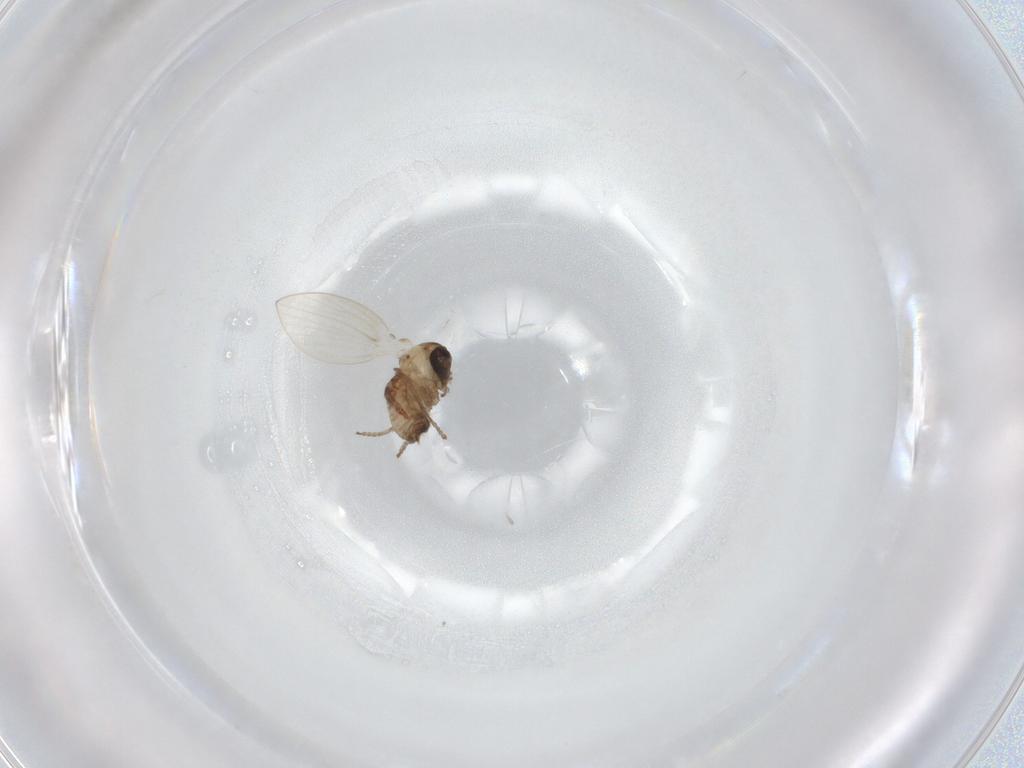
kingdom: Animalia
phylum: Arthropoda
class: Insecta
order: Diptera
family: Psychodidae
